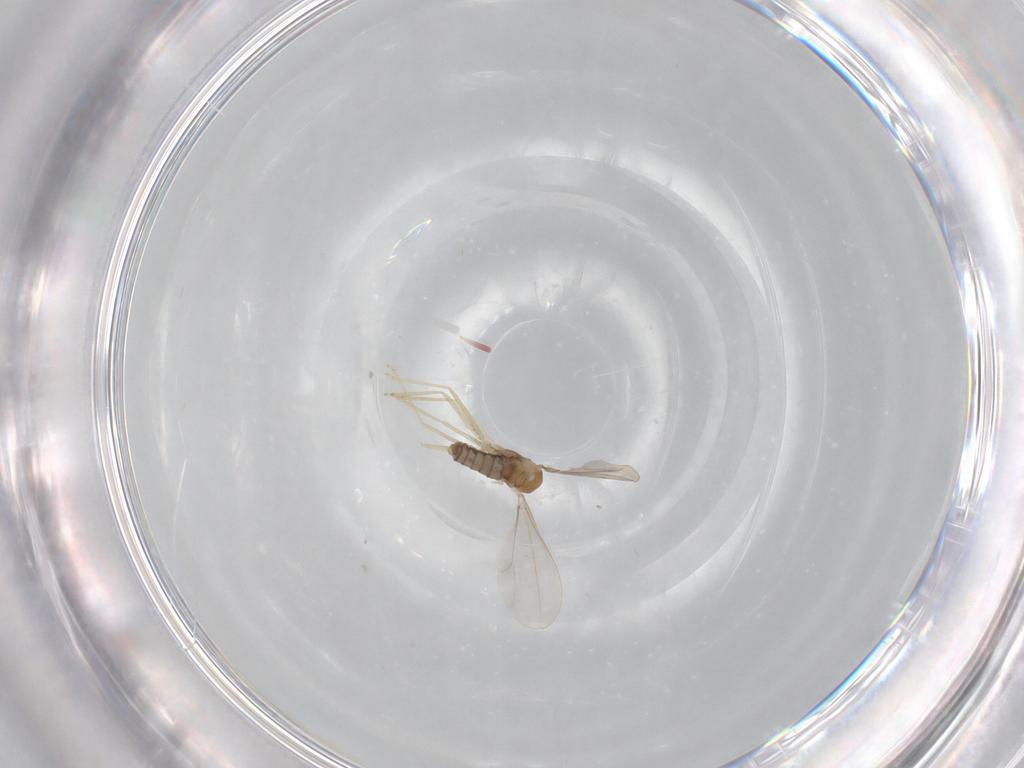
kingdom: Animalia
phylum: Arthropoda
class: Insecta
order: Diptera
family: Cecidomyiidae
